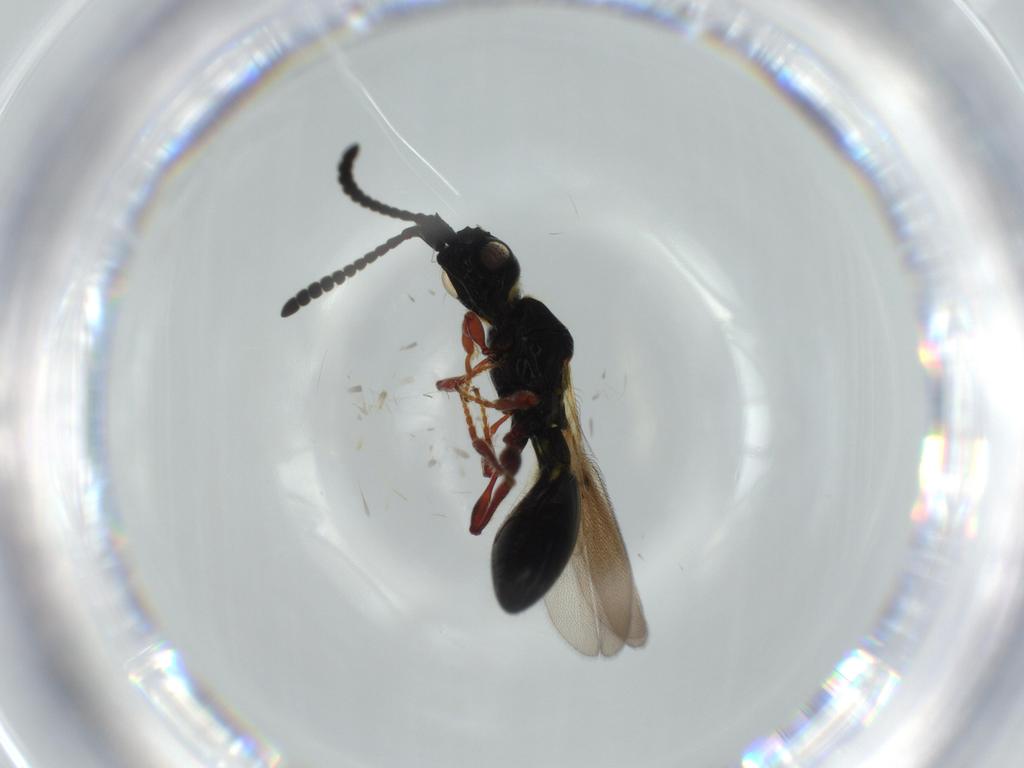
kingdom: Animalia
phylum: Arthropoda
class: Insecta
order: Hymenoptera
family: Diapriidae
